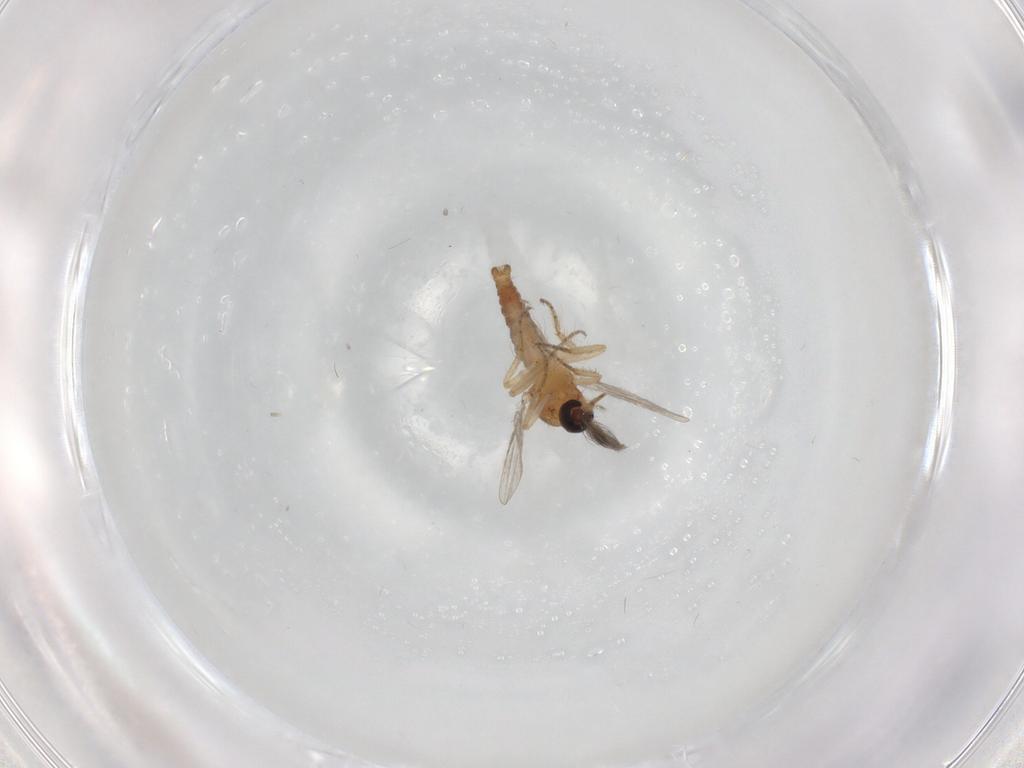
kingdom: Animalia
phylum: Arthropoda
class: Insecta
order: Diptera
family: Ceratopogonidae
